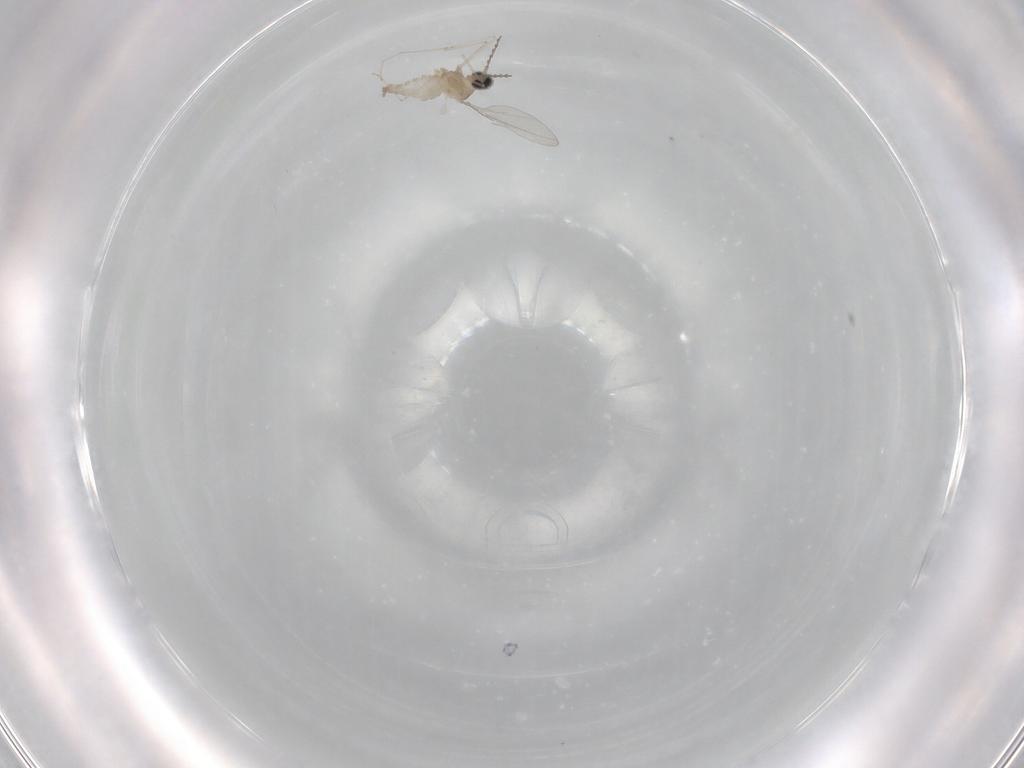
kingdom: Animalia
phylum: Arthropoda
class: Insecta
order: Diptera
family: Cecidomyiidae
